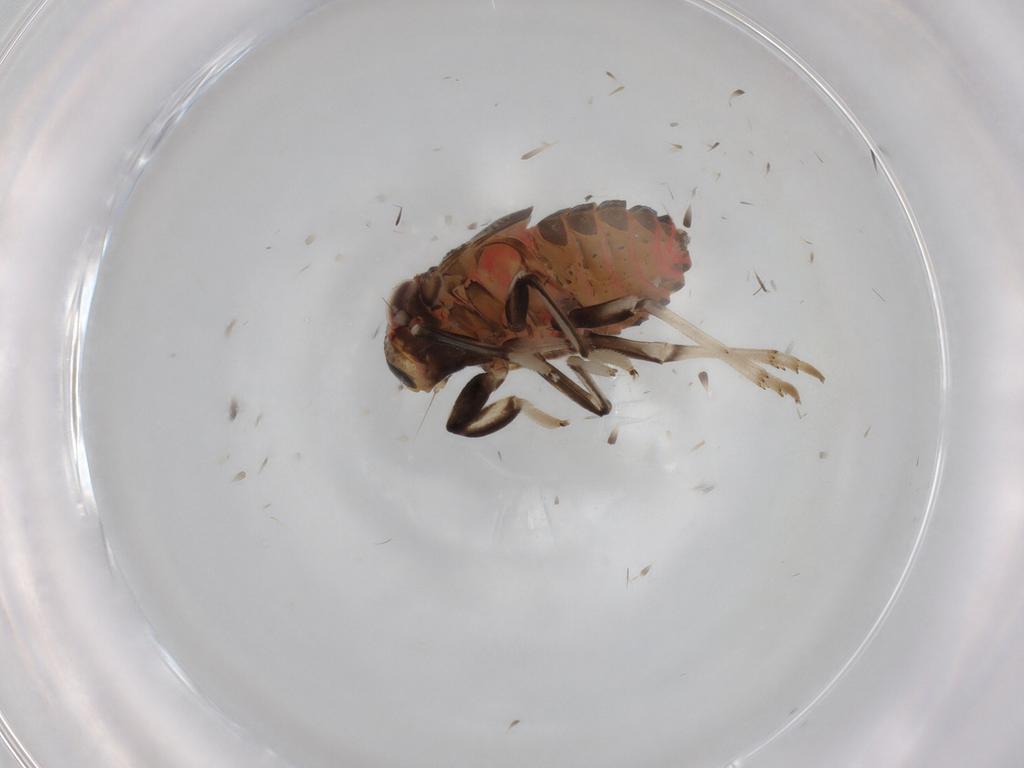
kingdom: Animalia
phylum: Arthropoda
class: Insecta
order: Hemiptera
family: Issidae
